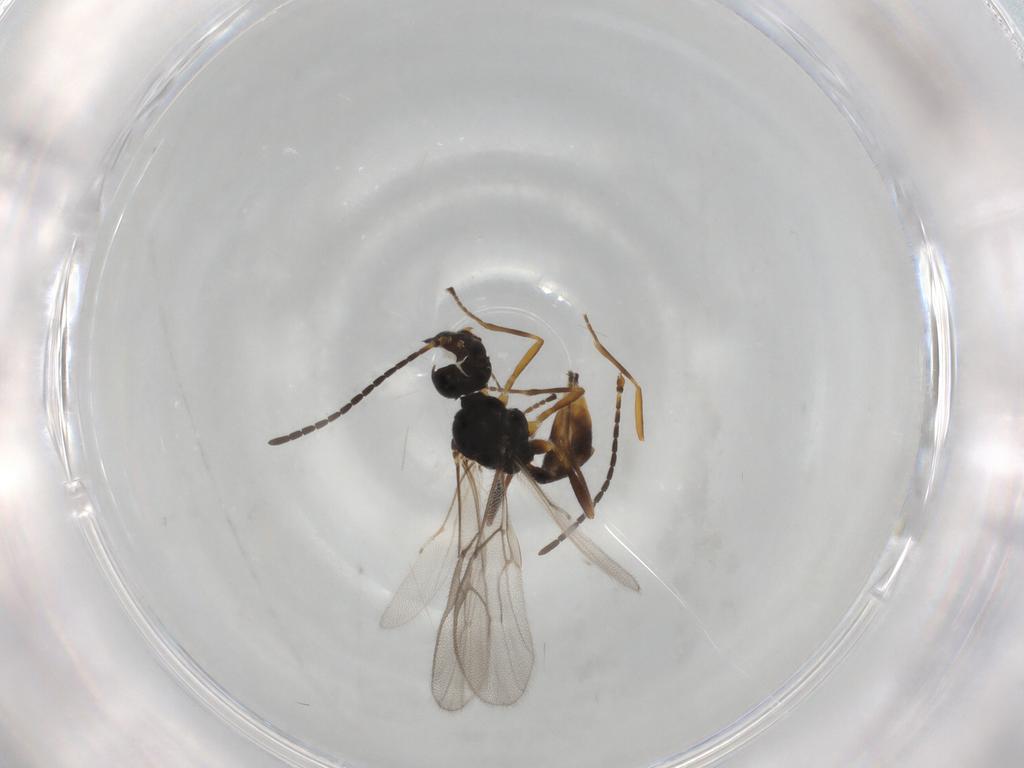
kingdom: Animalia
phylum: Arthropoda
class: Insecta
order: Hymenoptera
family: Braconidae
